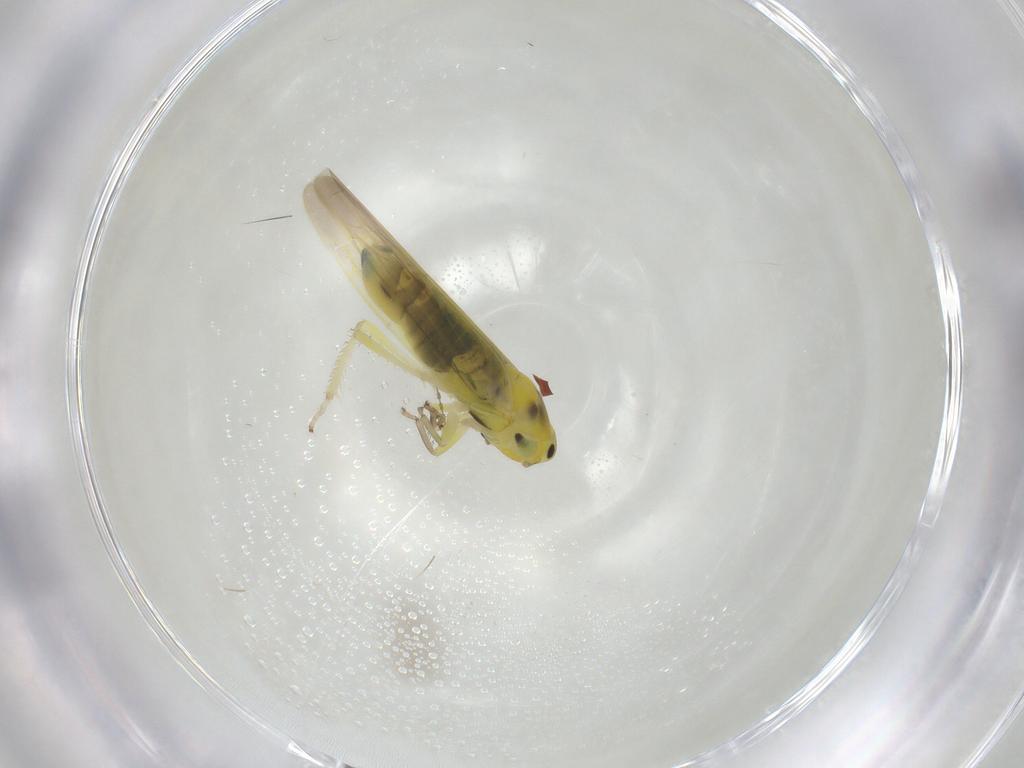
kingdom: Animalia
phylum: Arthropoda
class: Insecta
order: Hemiptera
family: Cicadellidae
